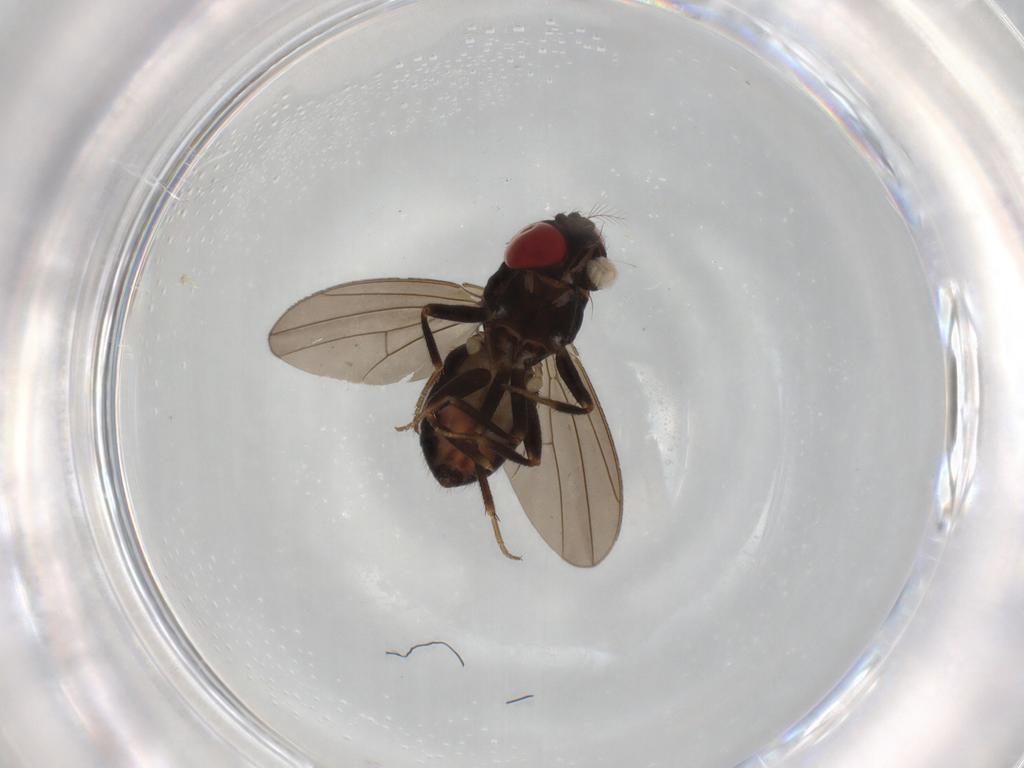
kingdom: Animalia
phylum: Arthropoda
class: Insecta
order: Diptera
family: Drosophilidae
